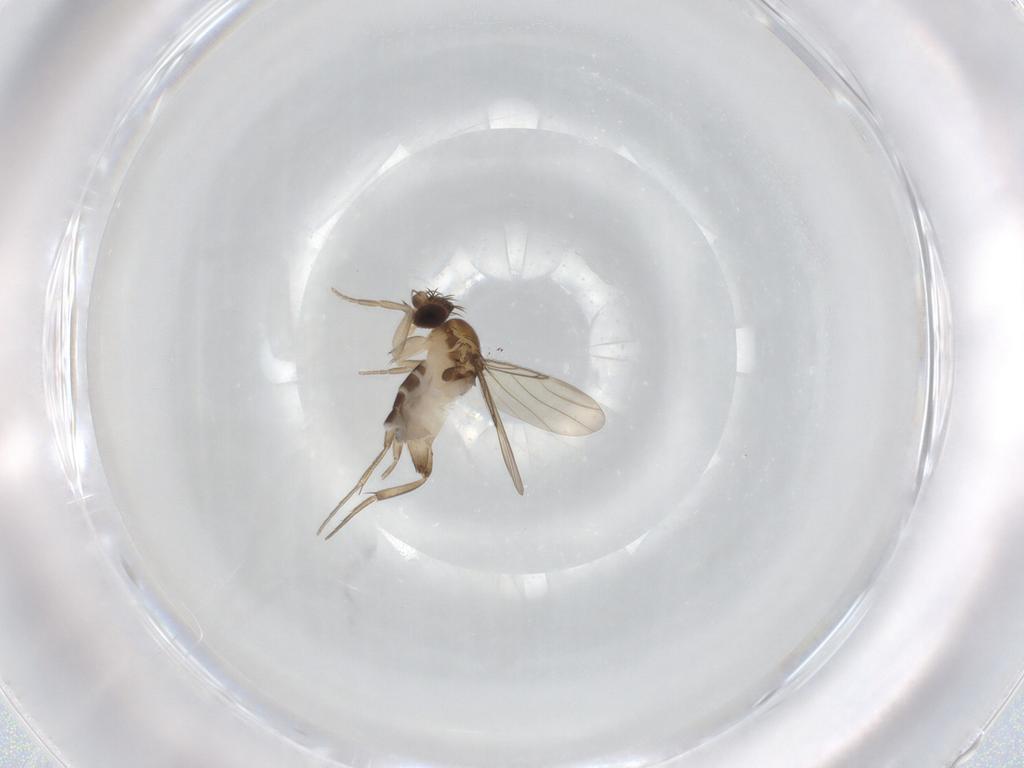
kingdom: Animalia
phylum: Arthropoda
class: Insecta
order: Diptera
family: Phoridae
